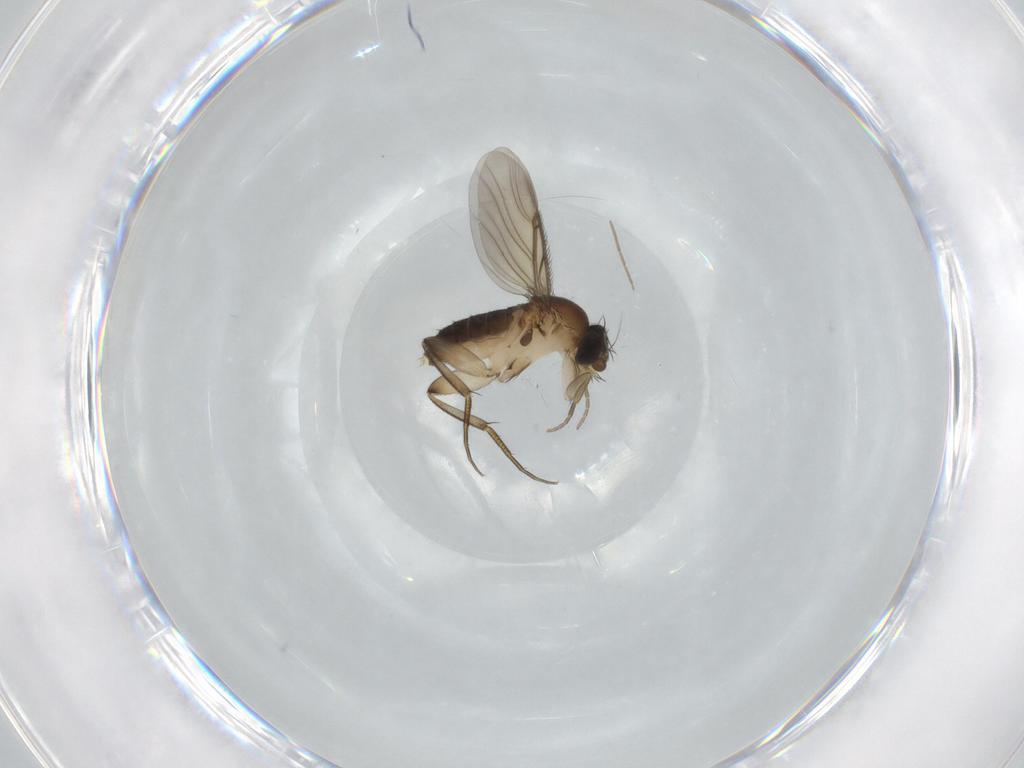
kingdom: Animalia
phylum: Arthropoda
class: Insecta
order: Diptera
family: Phoridae
